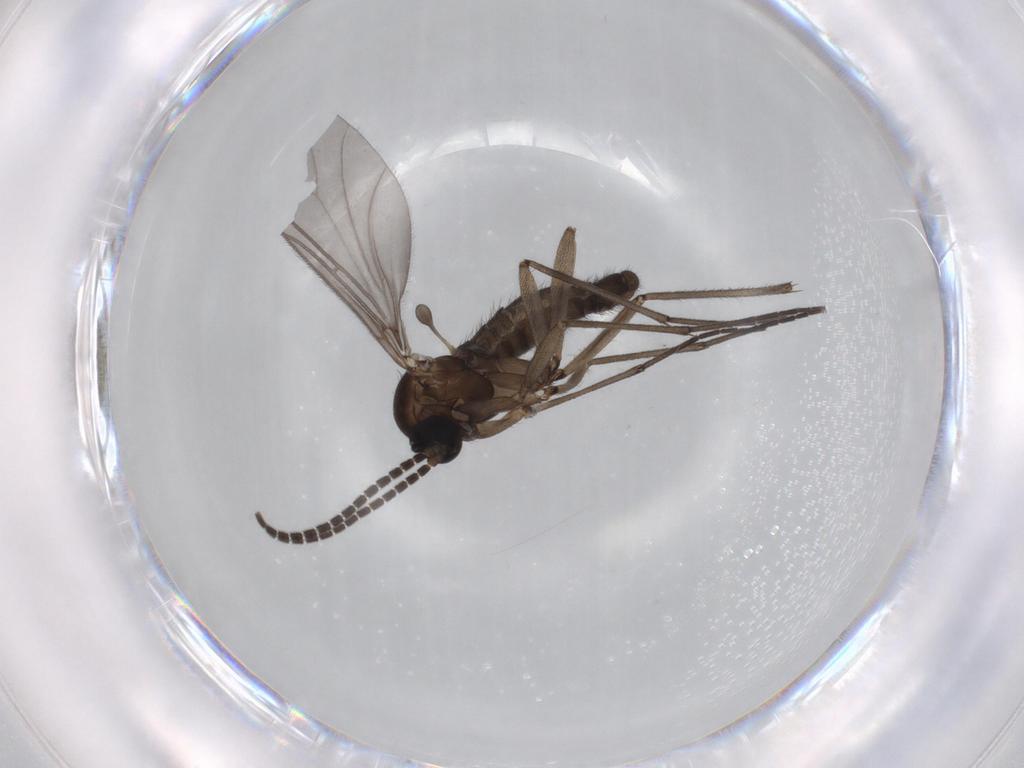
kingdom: Animalia
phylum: Arthropoda
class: Insecta
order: Diptera
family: Sciaridae
